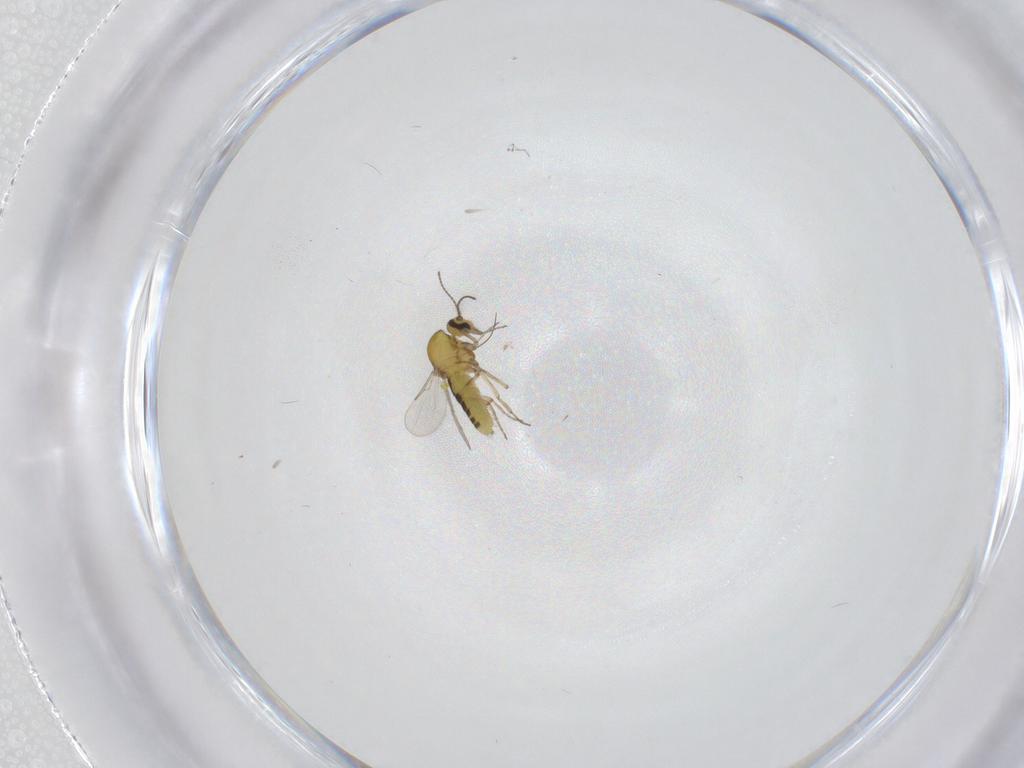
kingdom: Animalia
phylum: Arthropoda
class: Insecta
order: Diptera
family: Ceratopogonidae
